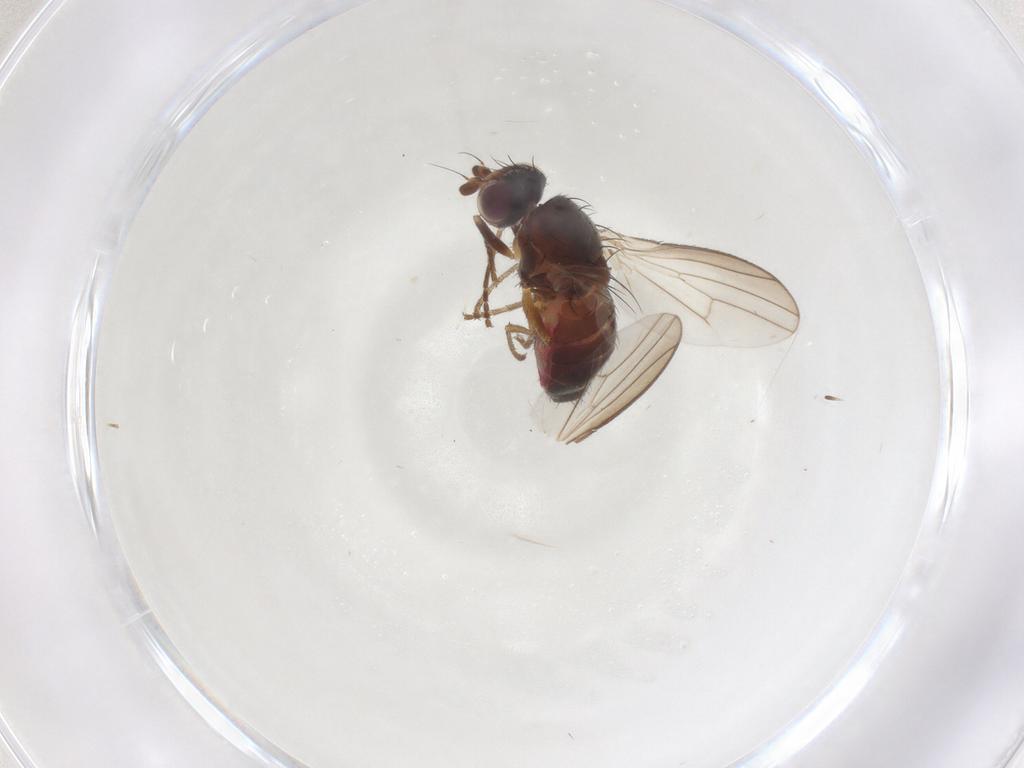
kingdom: Animalia
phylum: Arthropoda
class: Insecta
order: Diptera
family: Heleomyzidae
